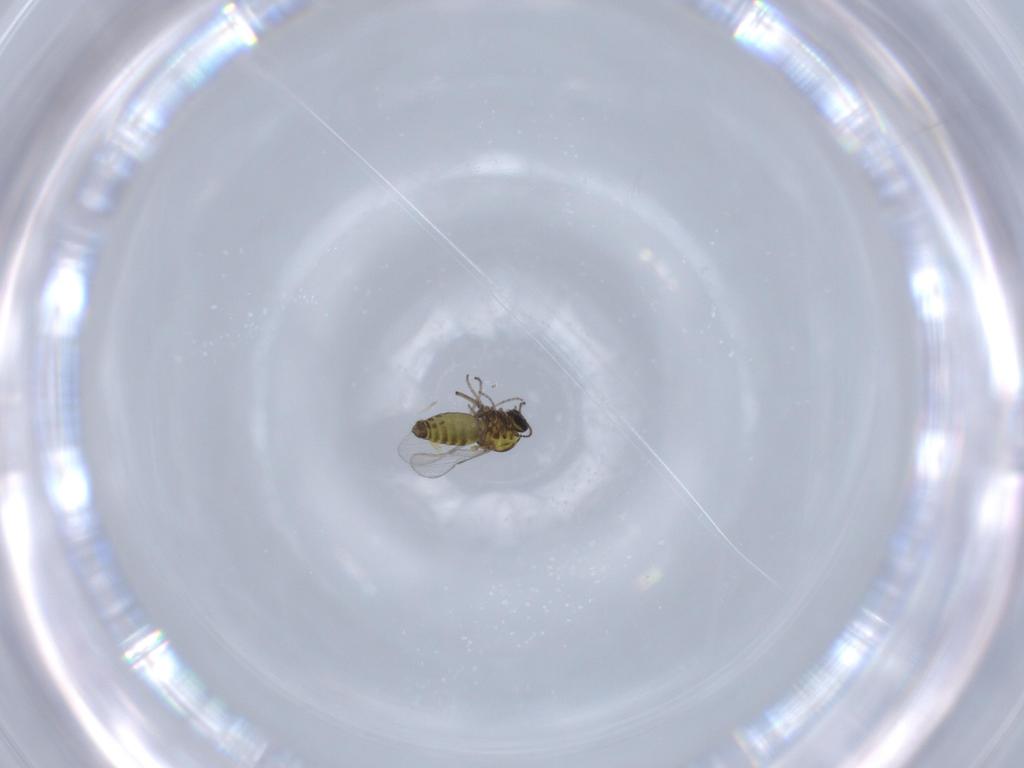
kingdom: Animalia
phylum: Arthropoda
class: Insecta
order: Diptera
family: Ceratopogonidae
